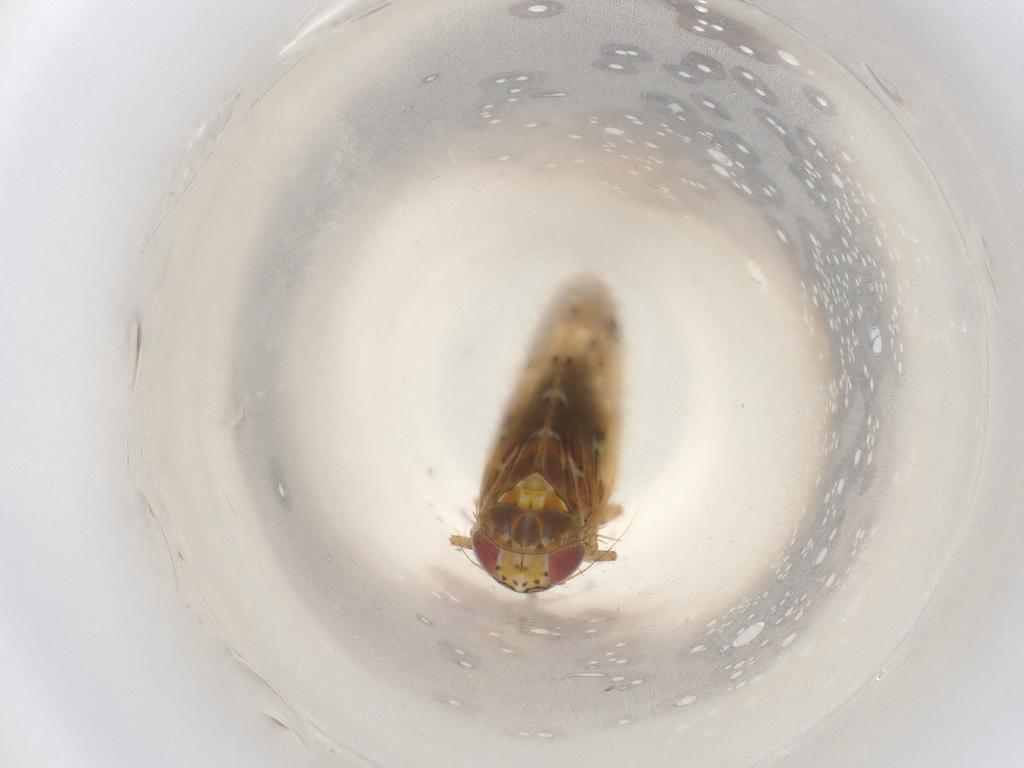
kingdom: Animalia
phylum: Arthropoda
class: Insecta
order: Hemiptera
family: Cicadellidae
